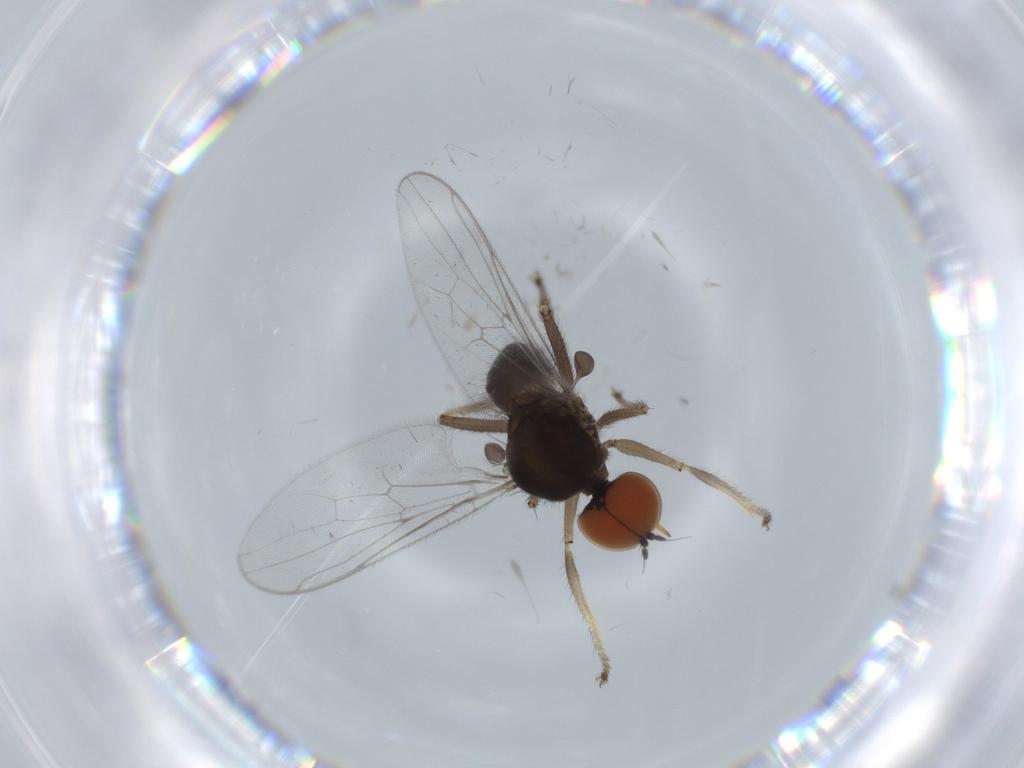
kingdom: Animalia
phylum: Arthropoda
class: Insecta
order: Diptera
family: Hybotidae
